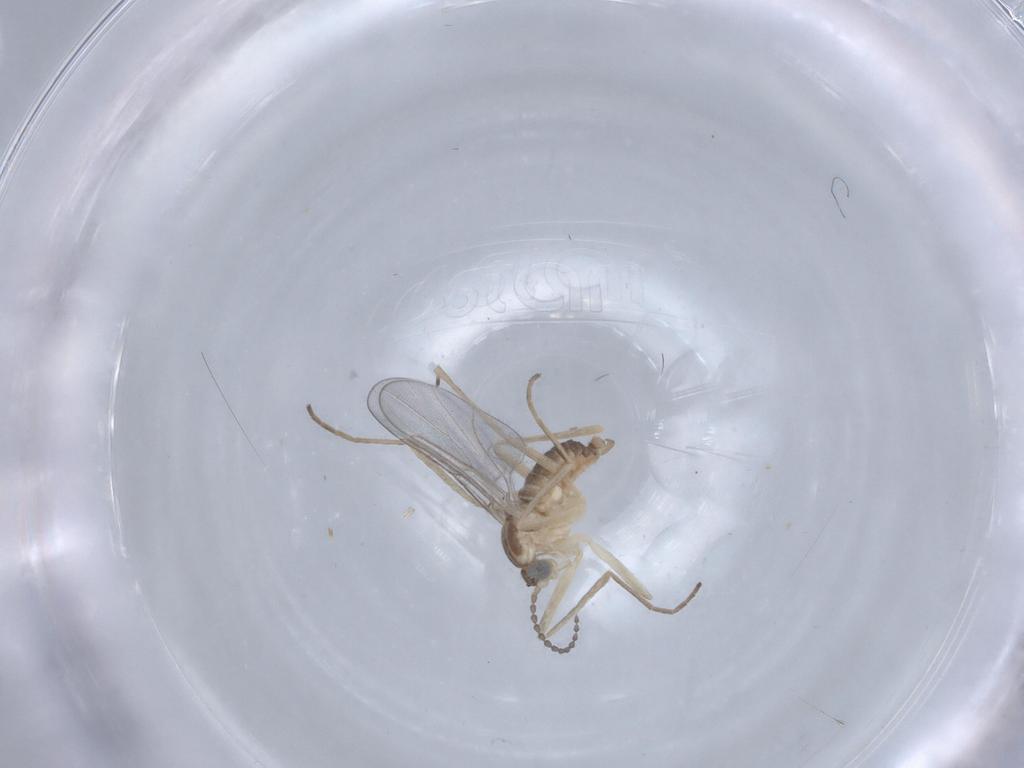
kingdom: Animalia
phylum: Arthropoda
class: Insecta
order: Diptera
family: Cecidomyiidae
